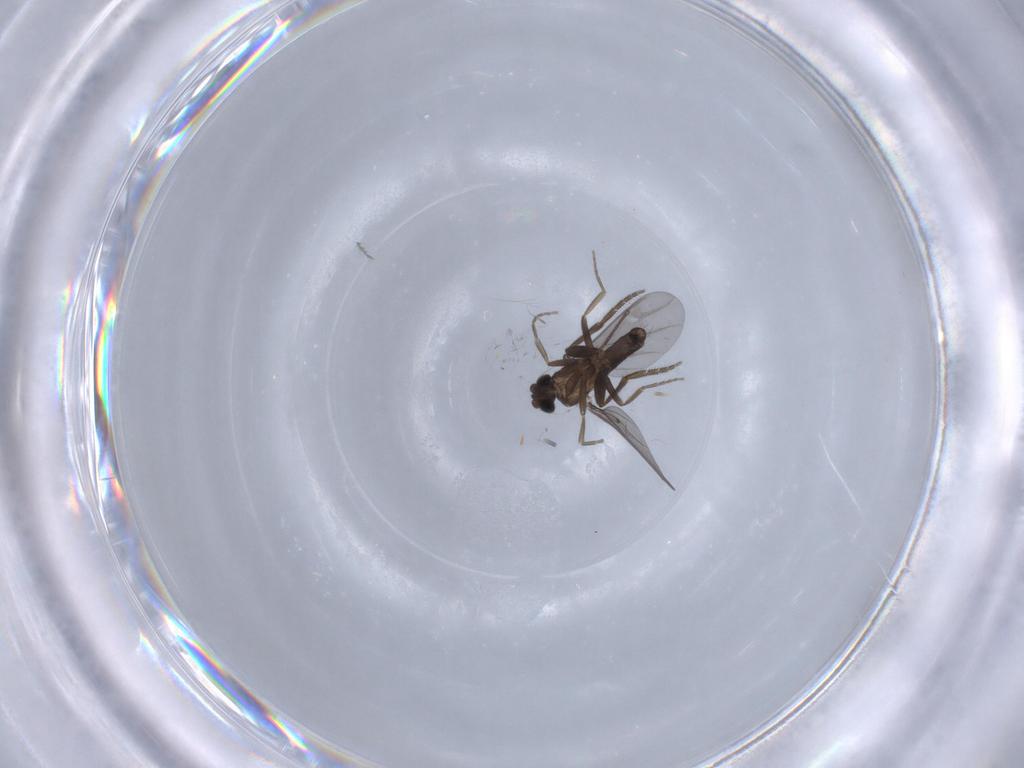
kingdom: Animalia
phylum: Arthropoda
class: Insecta
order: Diptera
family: Chironomidae
